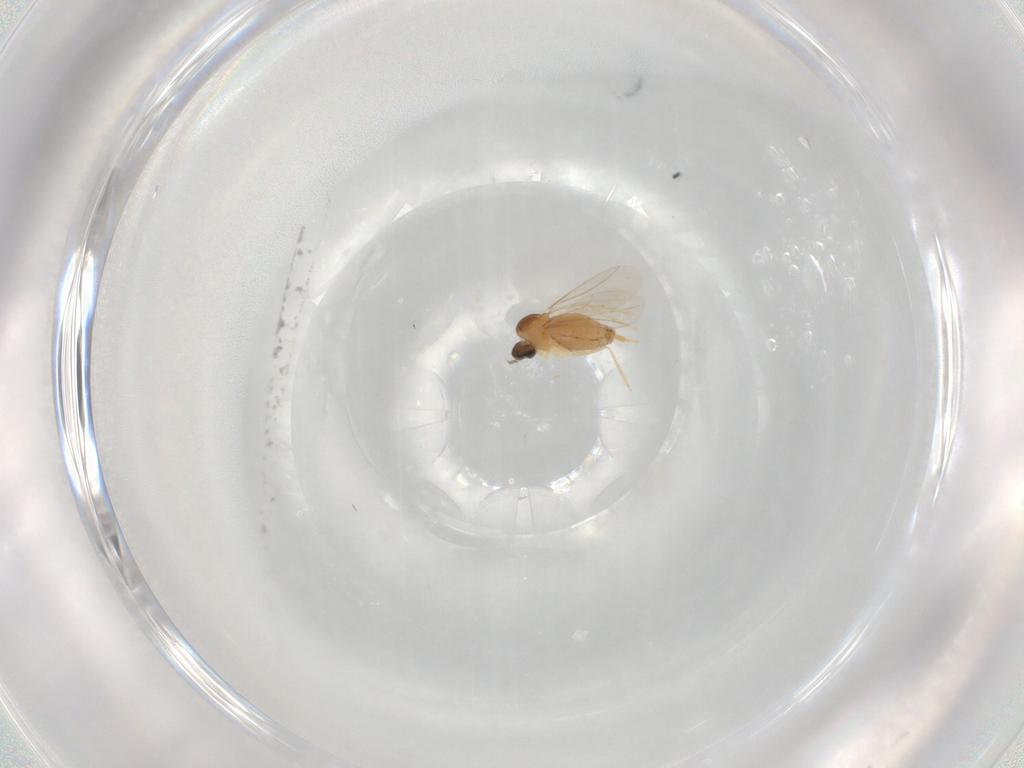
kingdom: Animalia
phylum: Arthropoda
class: Insecta
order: Diptera
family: Cecidomyiidae
